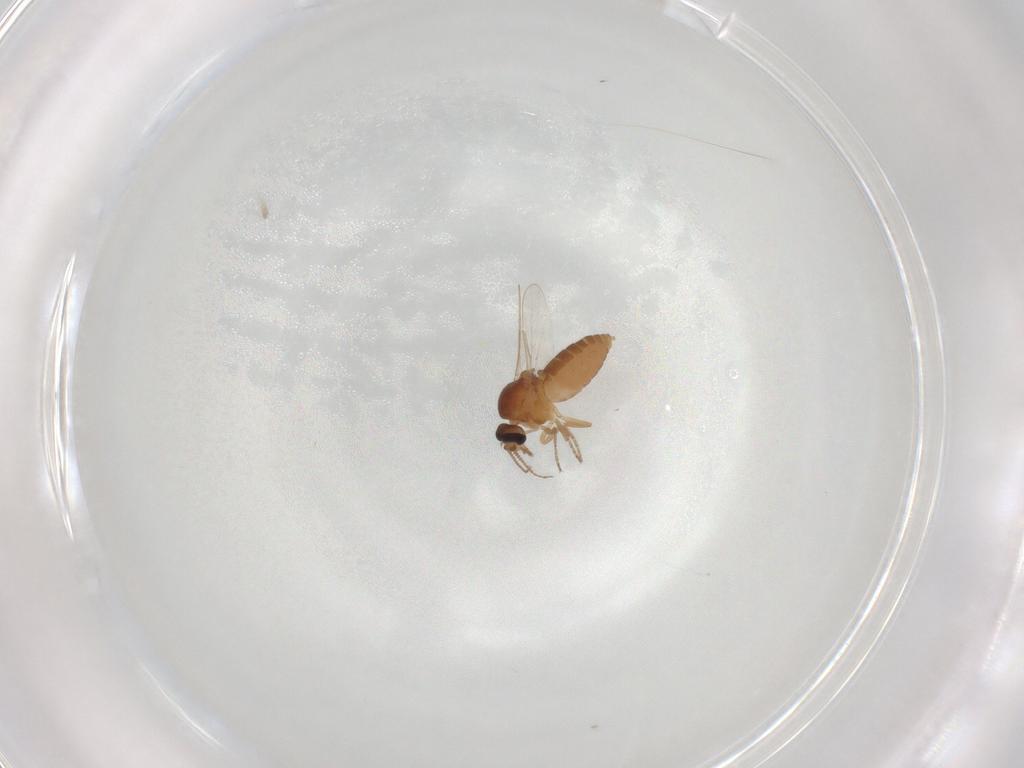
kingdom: Animalia
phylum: Arthropoda
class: Insecta
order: Diptera
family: Ceratopogonidae
